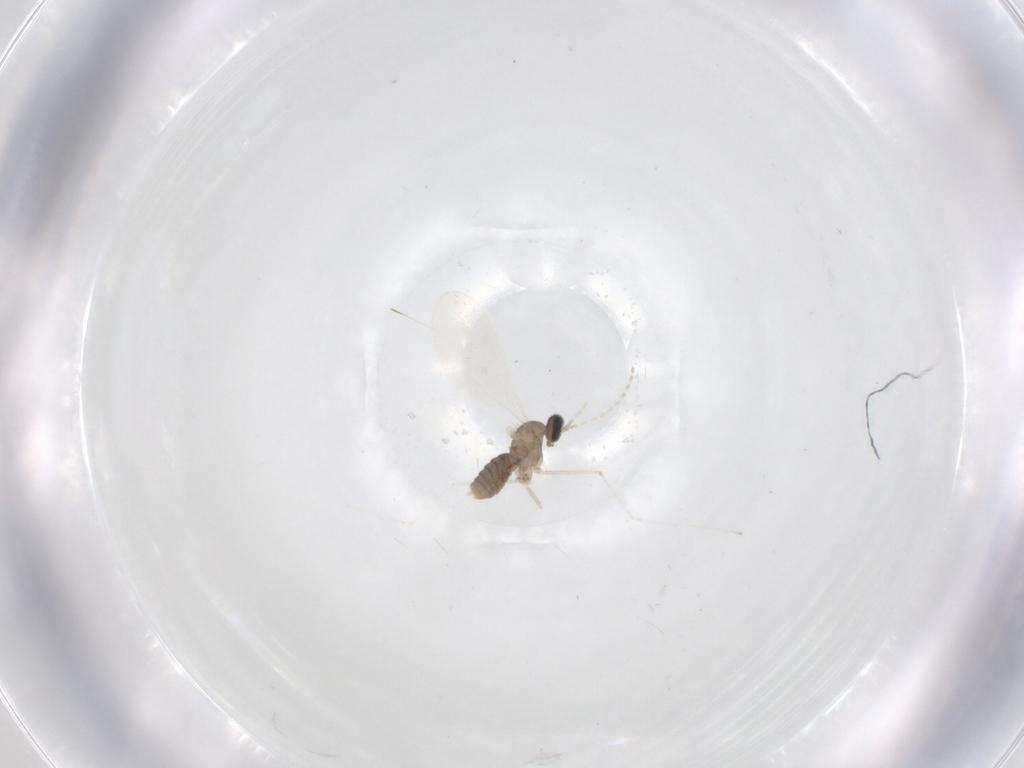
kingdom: Animalia
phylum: Arthropoda
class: Insecta
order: Diptera
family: Cecidomyiidae
